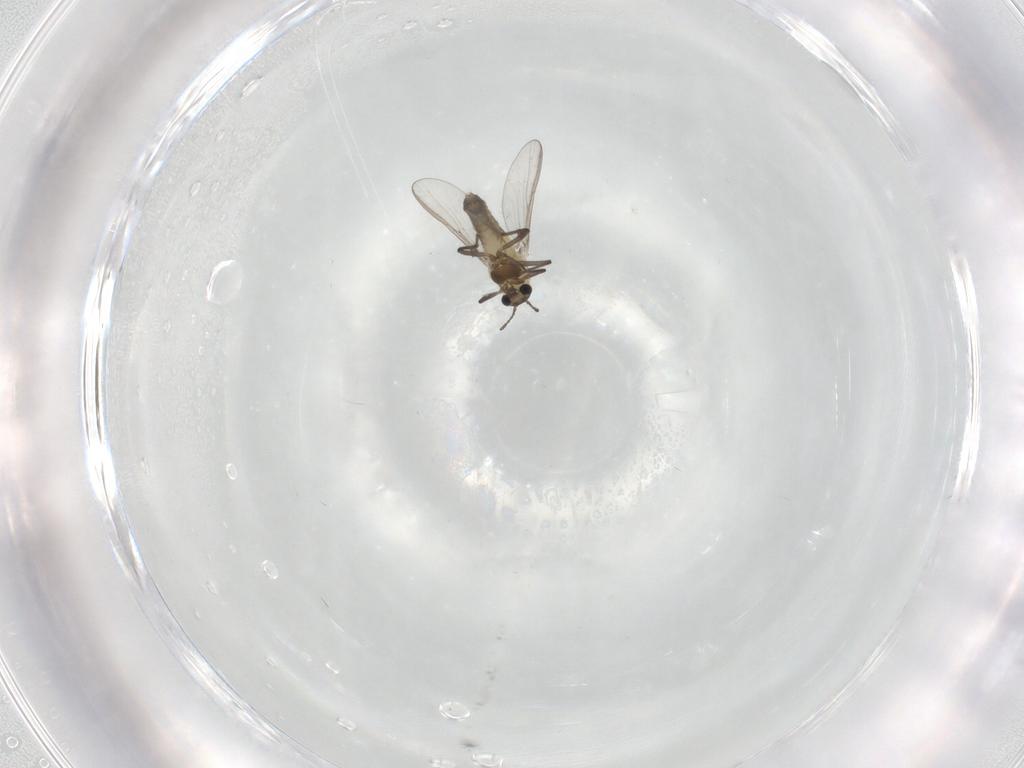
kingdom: Animalia
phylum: Arthropoda
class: Insecta
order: Diptera
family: Chironomidae
